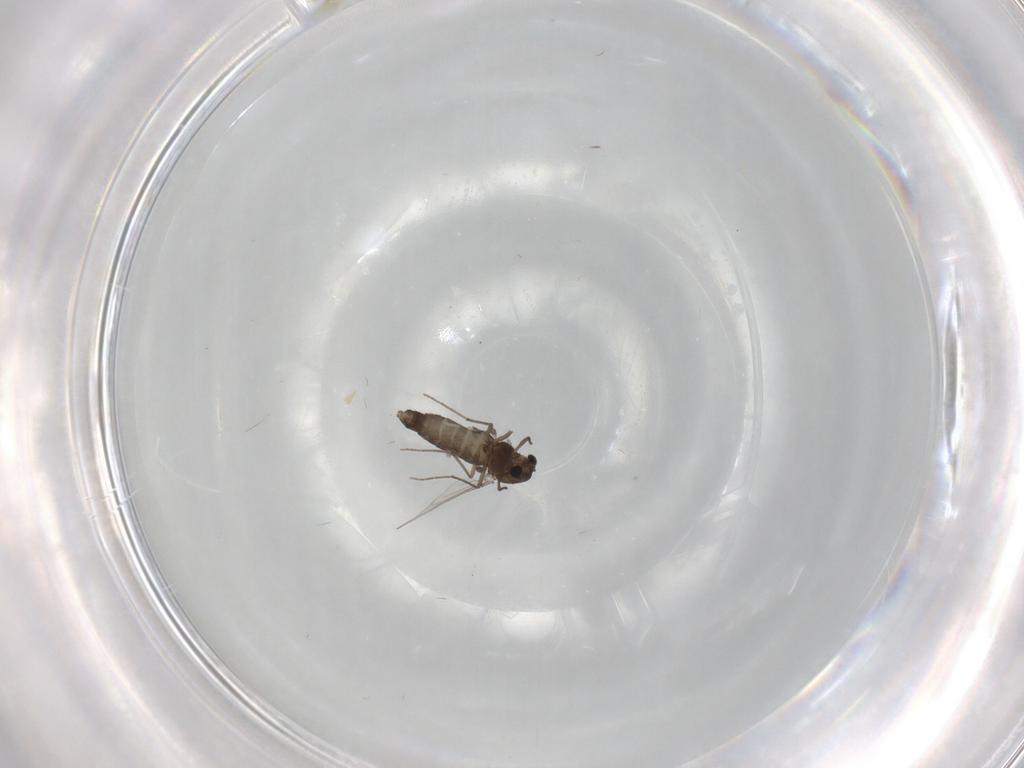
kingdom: Animalia
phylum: Arthropoda
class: Insecta
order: Diptera
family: Chironomidae
